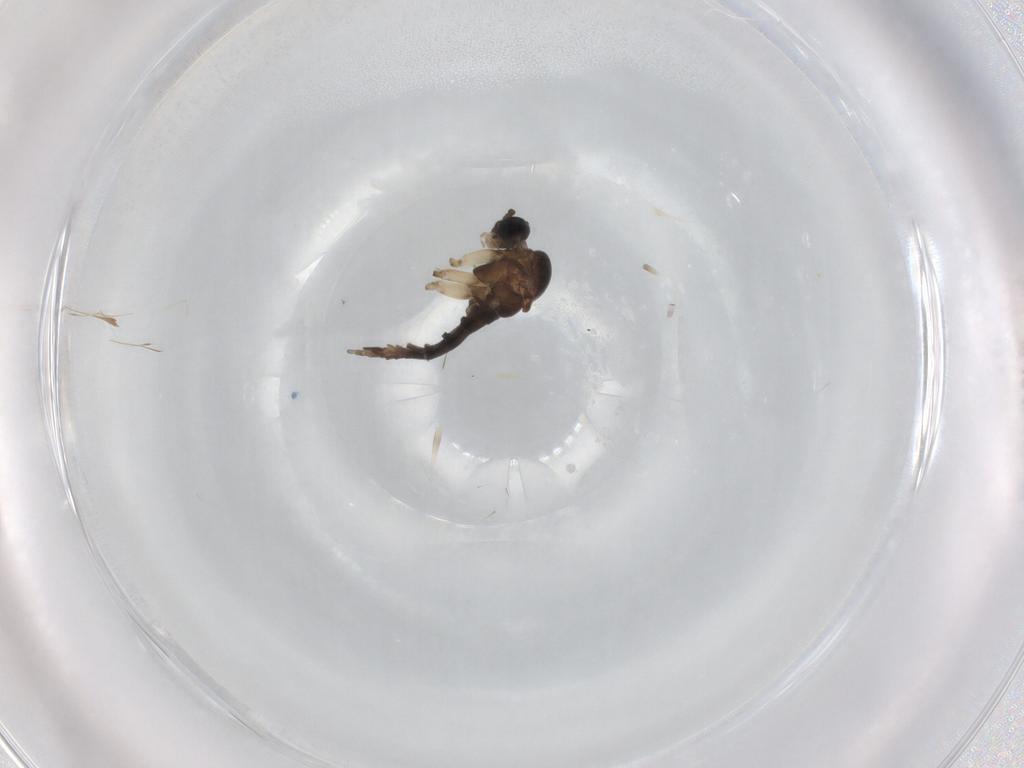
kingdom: Animalia
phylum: Arthropoda
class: Insecta
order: Diptera
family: Sciaridae
